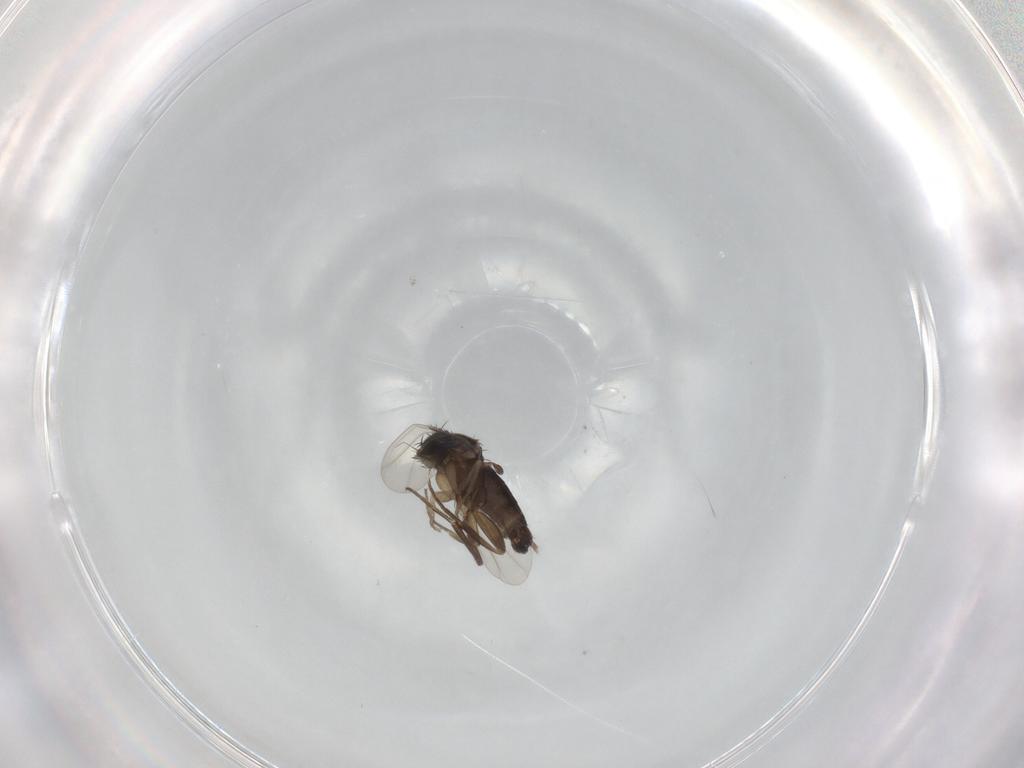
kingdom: Animalia
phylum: Arthropoda
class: Insecta
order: Diptera
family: Phoridae
